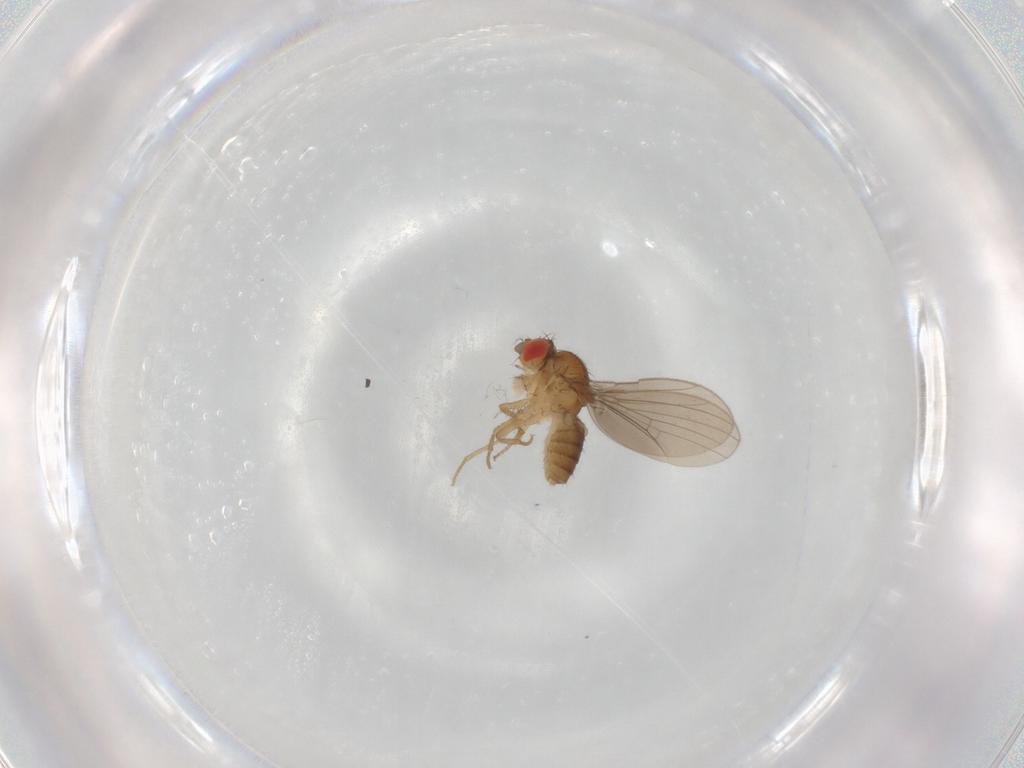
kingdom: Animalia
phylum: Arthropoda
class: Insecta
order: Diptera
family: Drosophilidae
